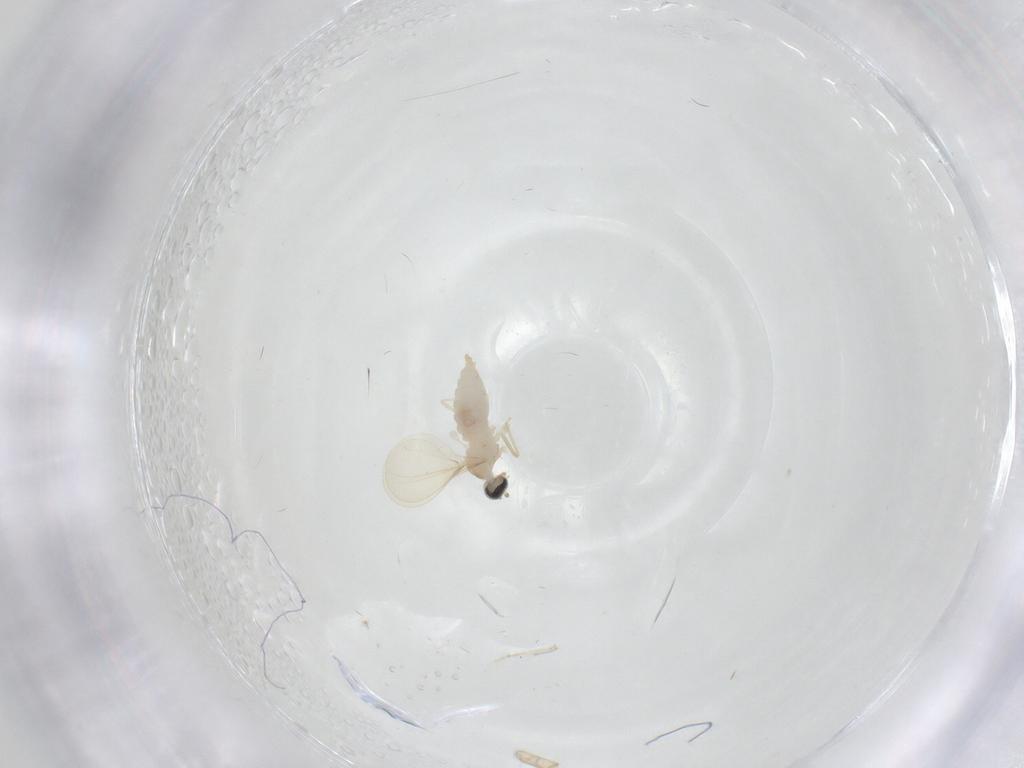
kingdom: Animalia
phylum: Arthropoda
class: Insecta
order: Diptera
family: Cecidomyiidae
